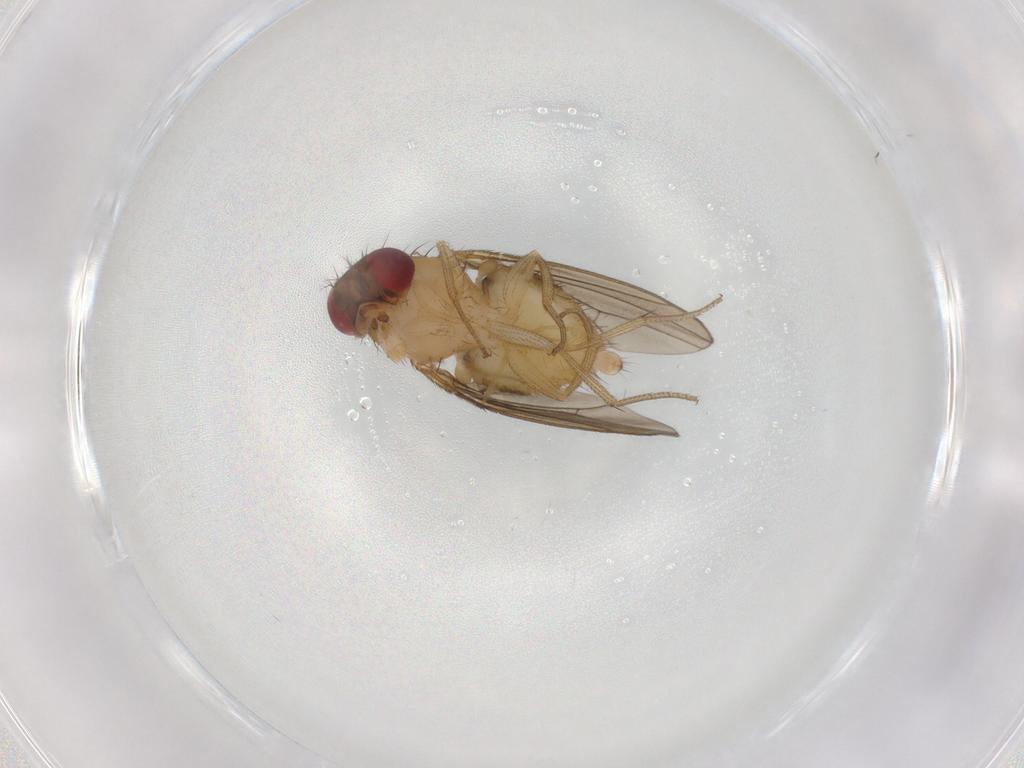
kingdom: Animalia
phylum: Arthropoda
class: Insecta
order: Diptera
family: Drosophilidae
